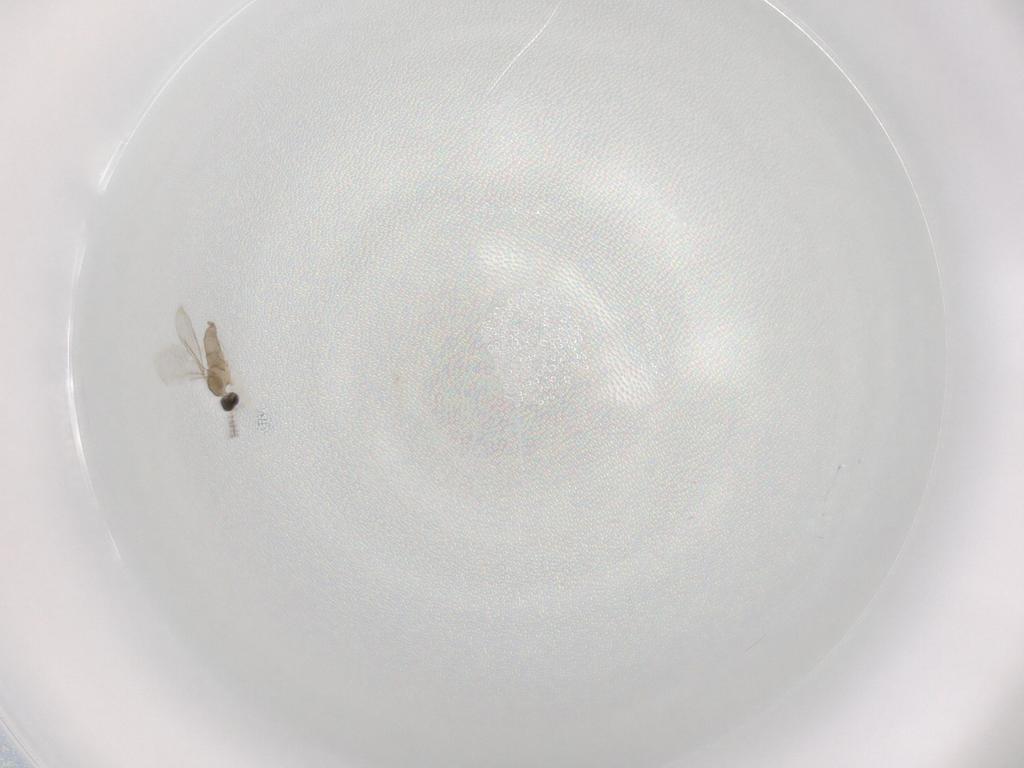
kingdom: Animalia
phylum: Arthropoda
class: Insecta
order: Diptera
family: Cecidomyiidae
